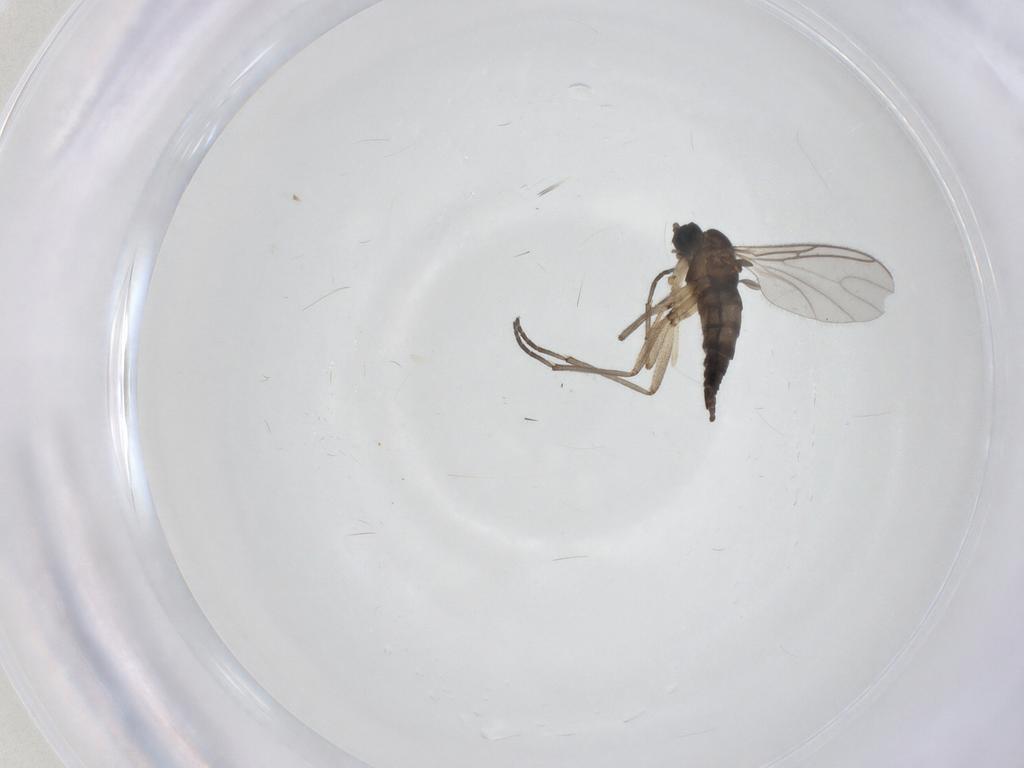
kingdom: Animalia
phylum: Arthropoda
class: Insecta
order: Diptera
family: Sciaridae
